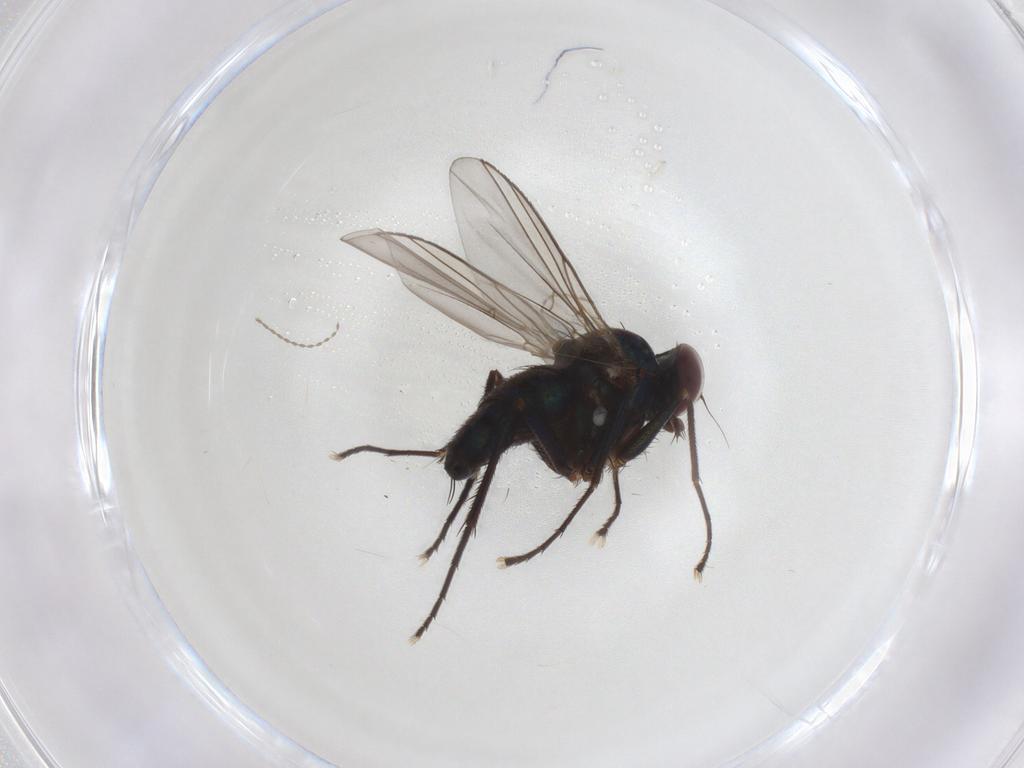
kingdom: Animalia
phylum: Arthropoda
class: Insecta
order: Diptera
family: Dolichopodidae
